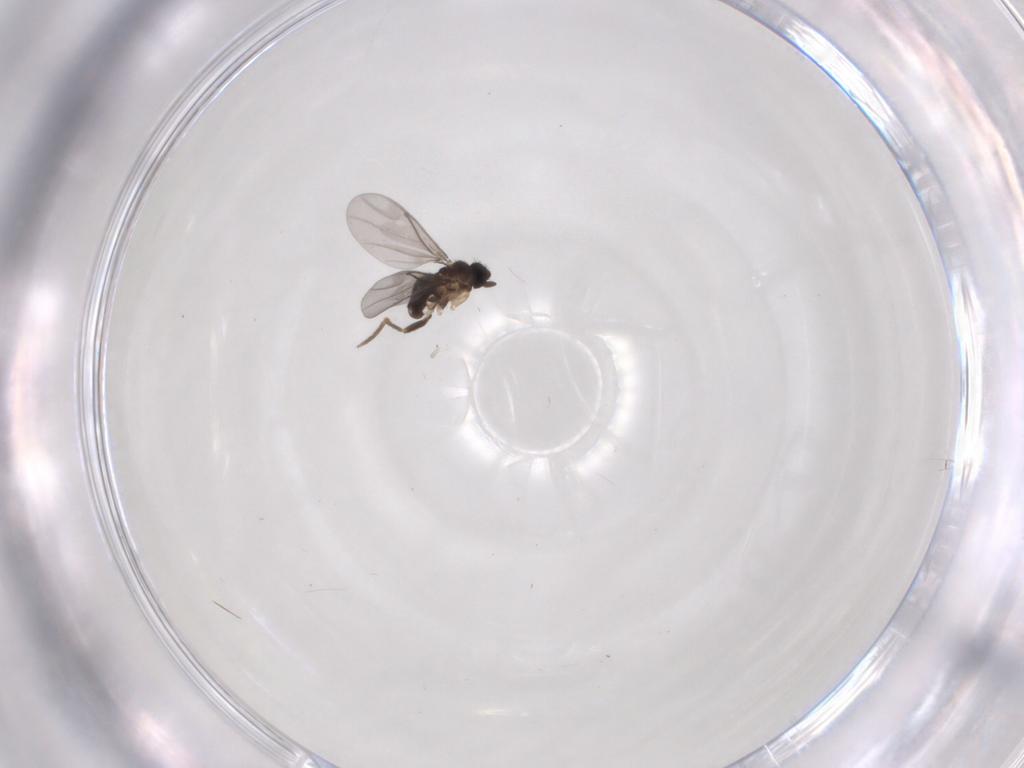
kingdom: Animalia
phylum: Arthropoda
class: Insecta
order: Diptera
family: Phoridae
